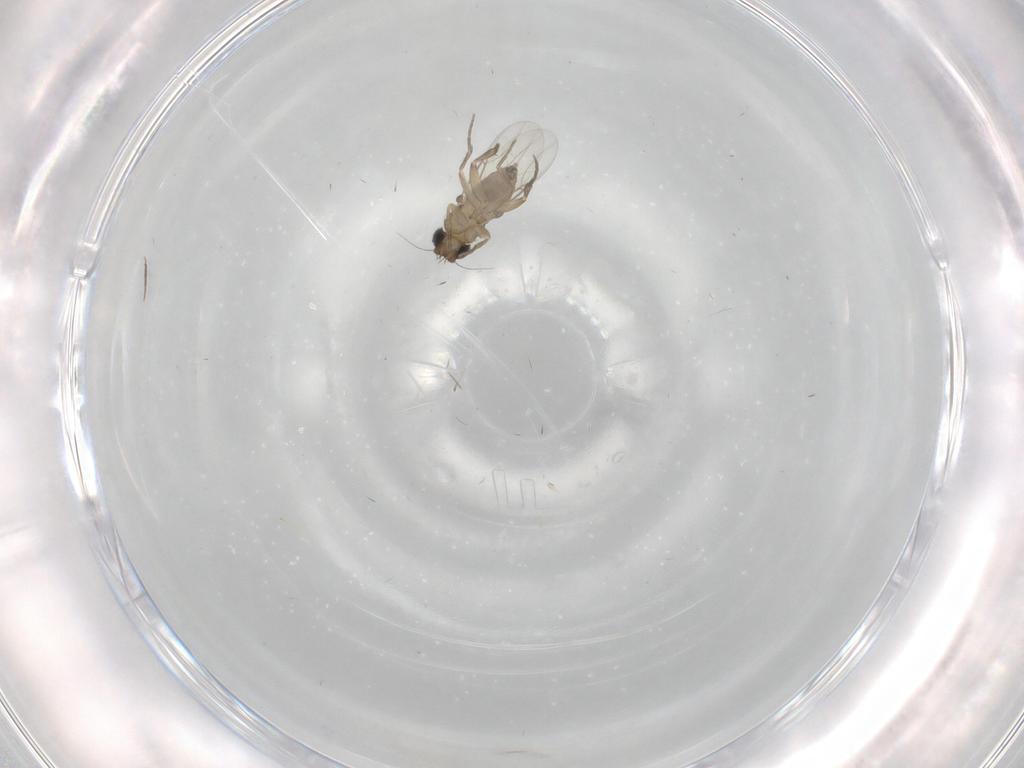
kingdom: Animalia
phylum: Arthropoda
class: Insecta
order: Diptera
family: Phoridae
